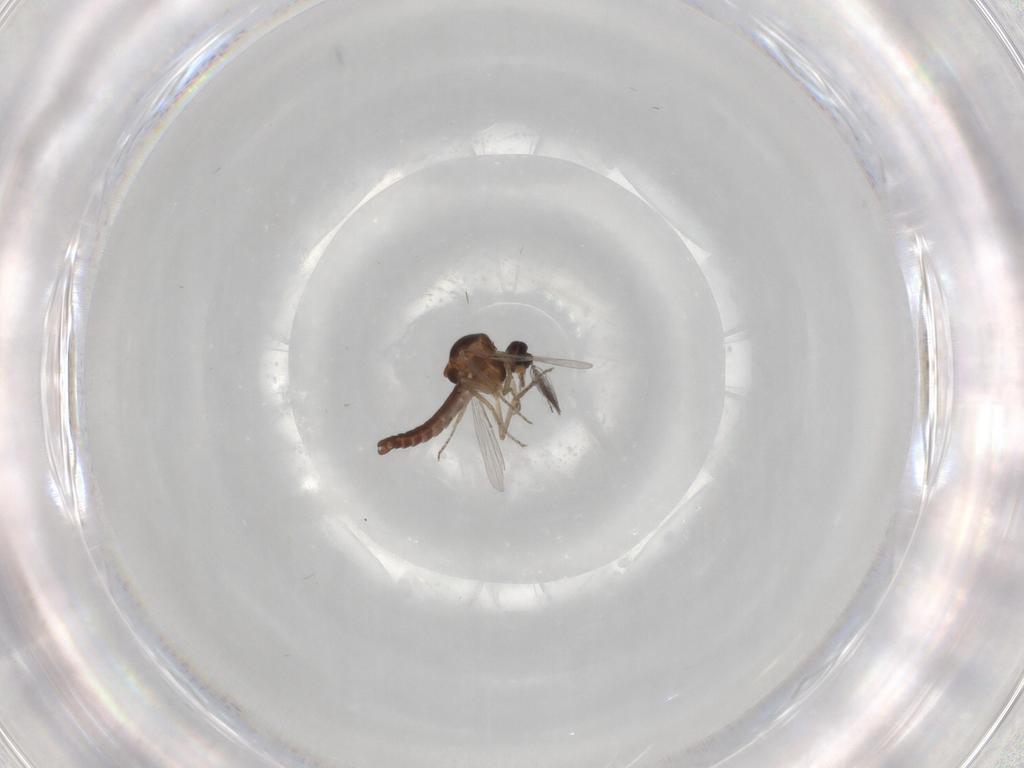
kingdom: Animalia
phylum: Arthropoda
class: Insecta
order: Diptera
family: Ceratopogonidae
